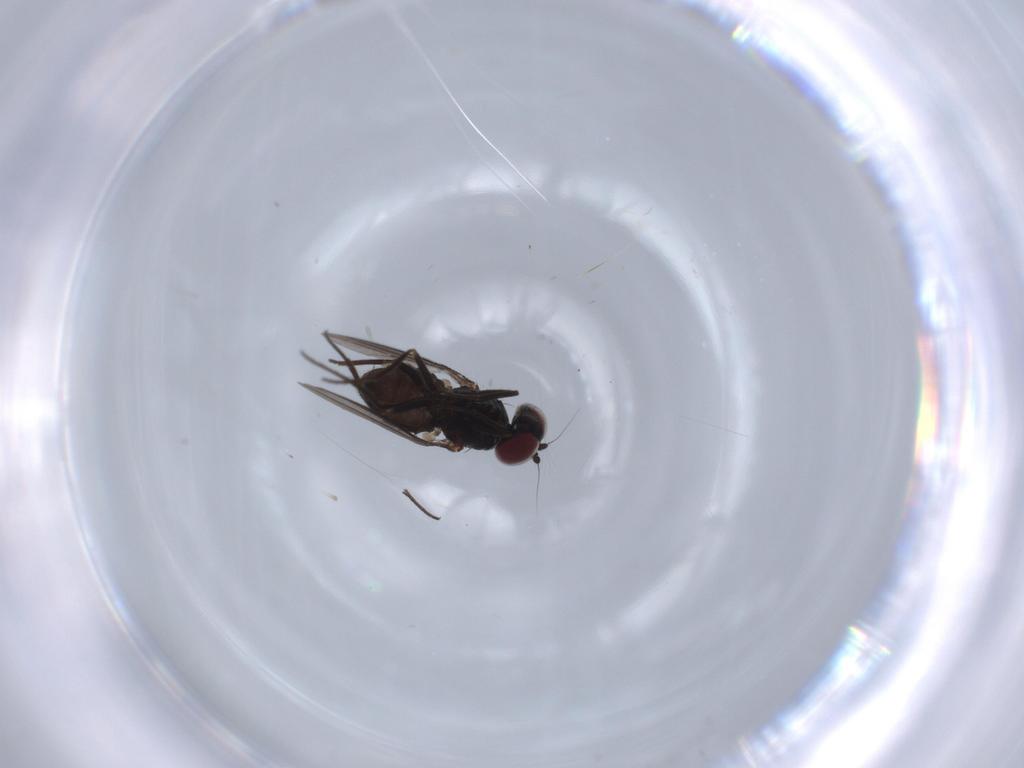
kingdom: Animalia
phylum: Arthropoda
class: Insecta
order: Diptera
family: Dolichopodidae
